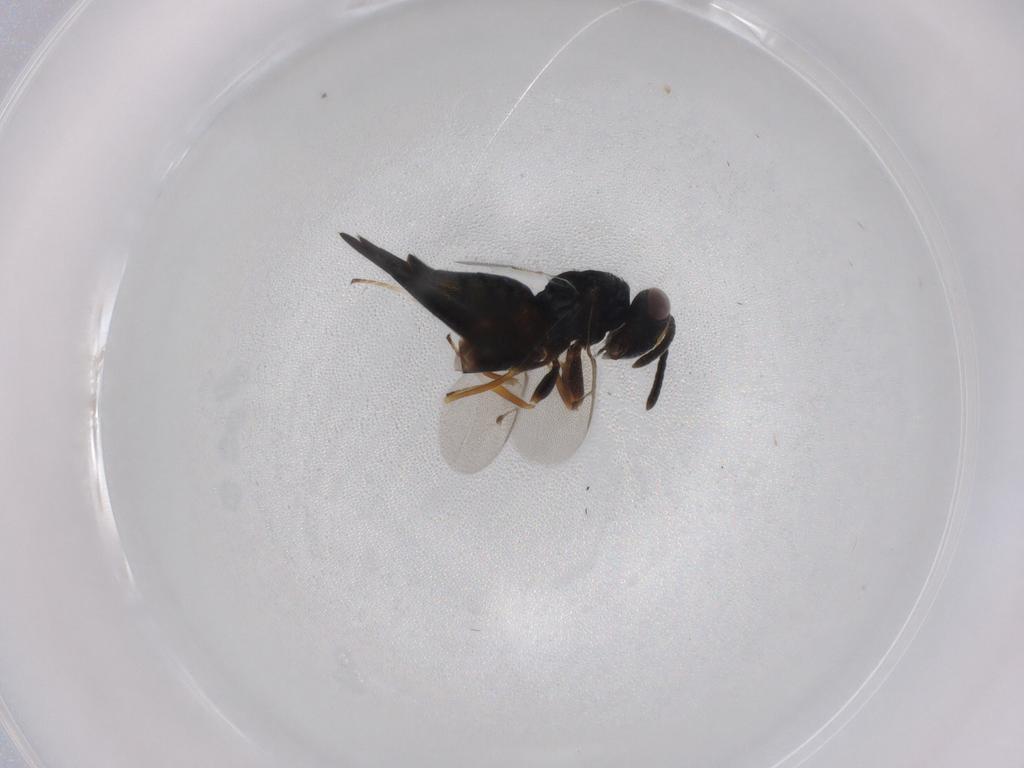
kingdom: Animalia
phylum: Arthropoda
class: Insecta
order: Hymenoptera
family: Pteromalidae
